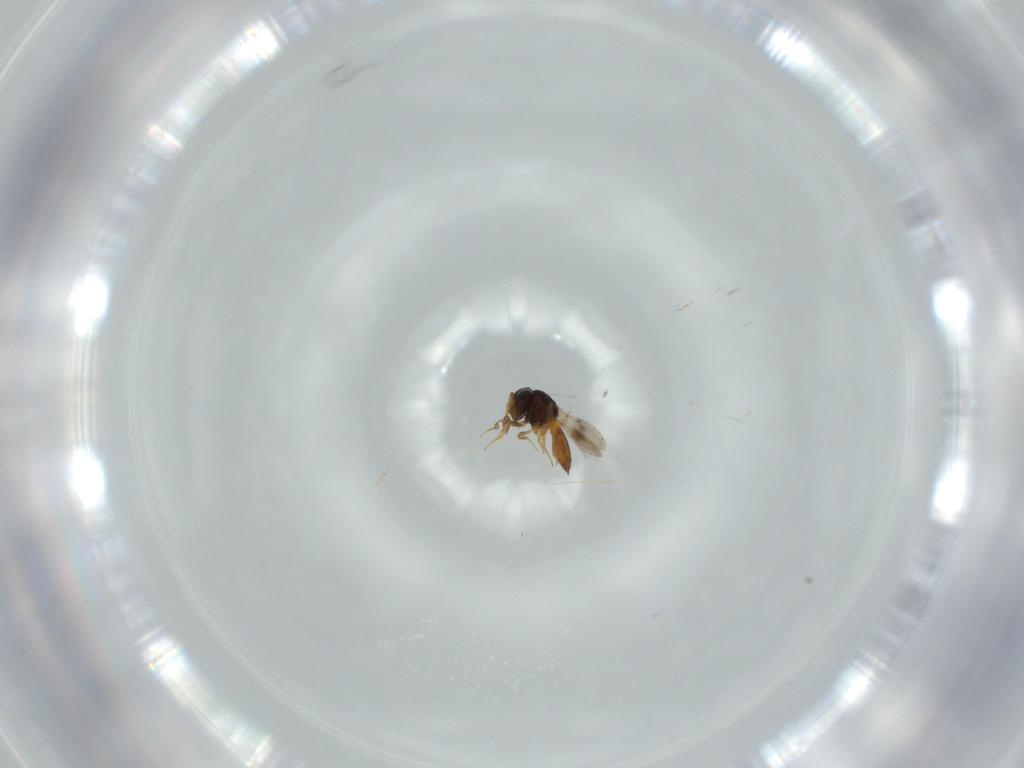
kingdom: Animalia
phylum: Arthropoda
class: Insecta
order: Hymenoptera
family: Scelionidae
